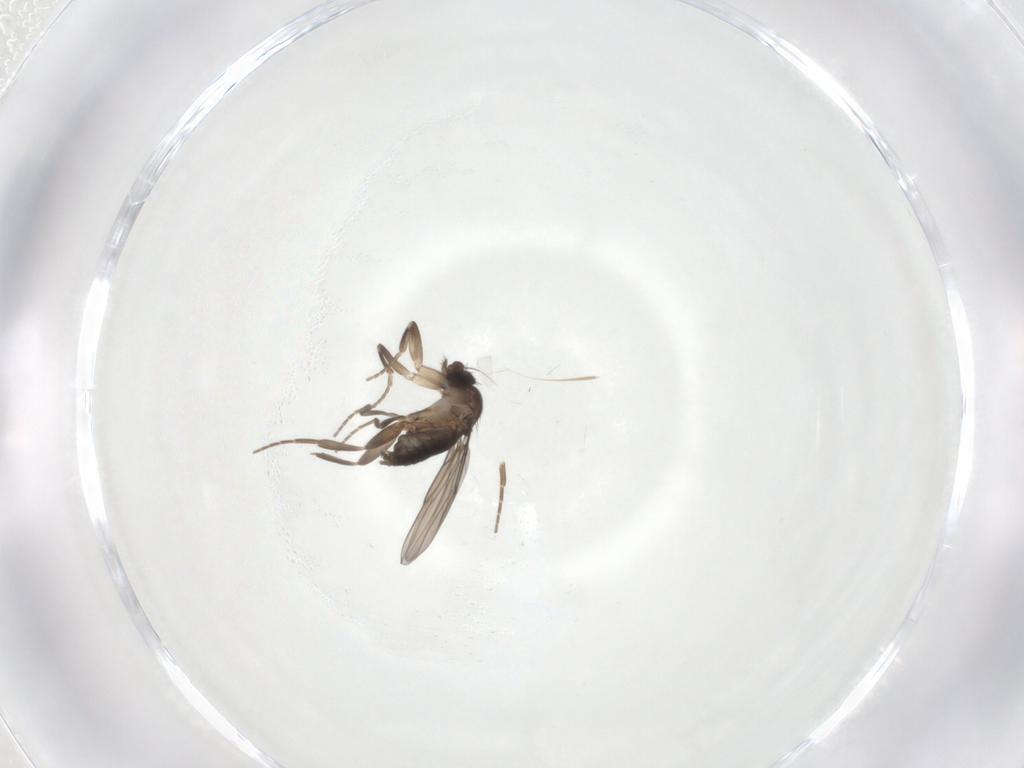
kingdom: Animalia
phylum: Arthropoda
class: Insecta
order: Diptera
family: Phoridae
